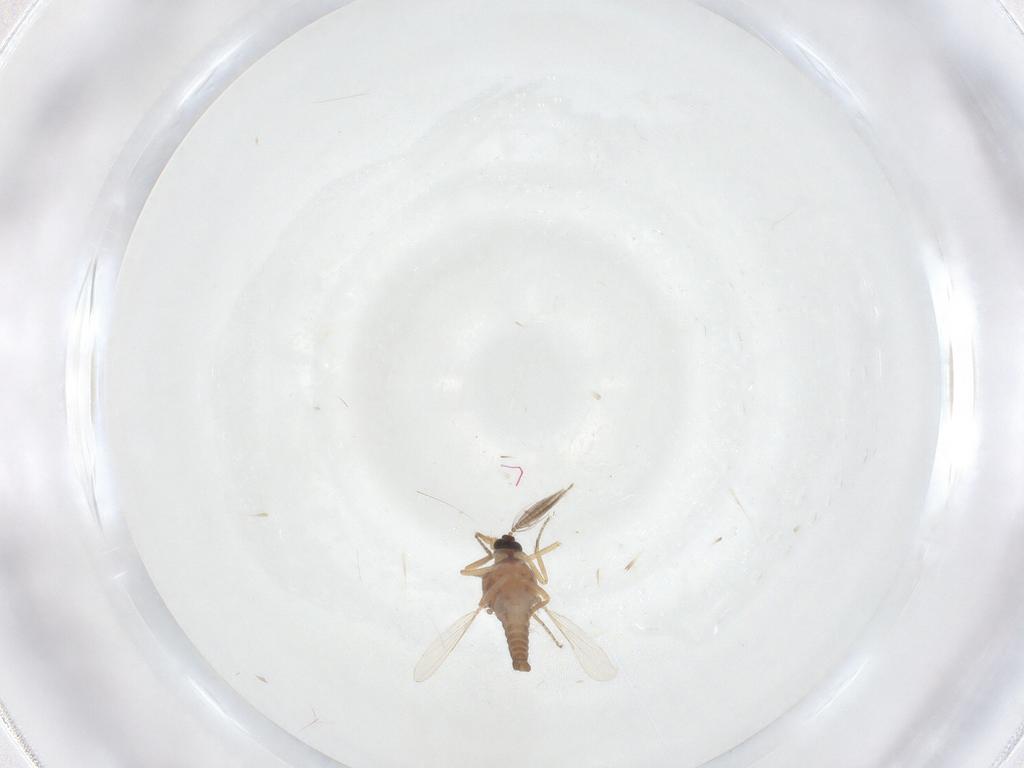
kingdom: Animalia
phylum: Arthropoda
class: Insecta
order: Diptera
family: Ceratopogonidae
